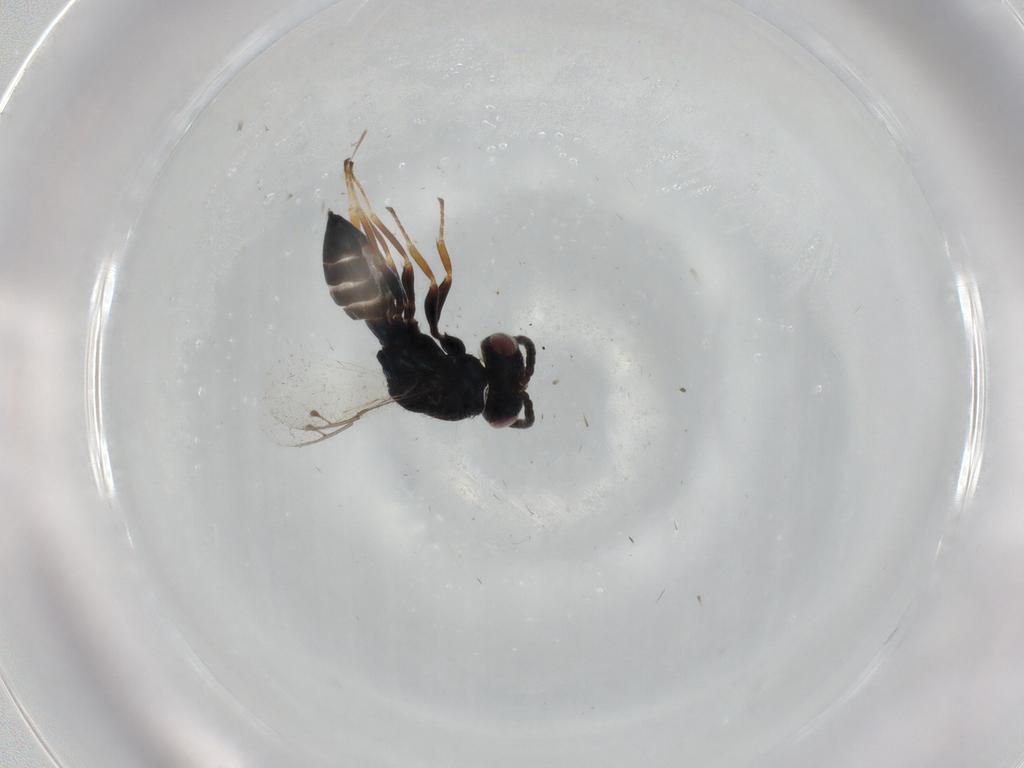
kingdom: Animalia
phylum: Arthropoda
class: Insecta
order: Hymenoptera
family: Pteromalidae
